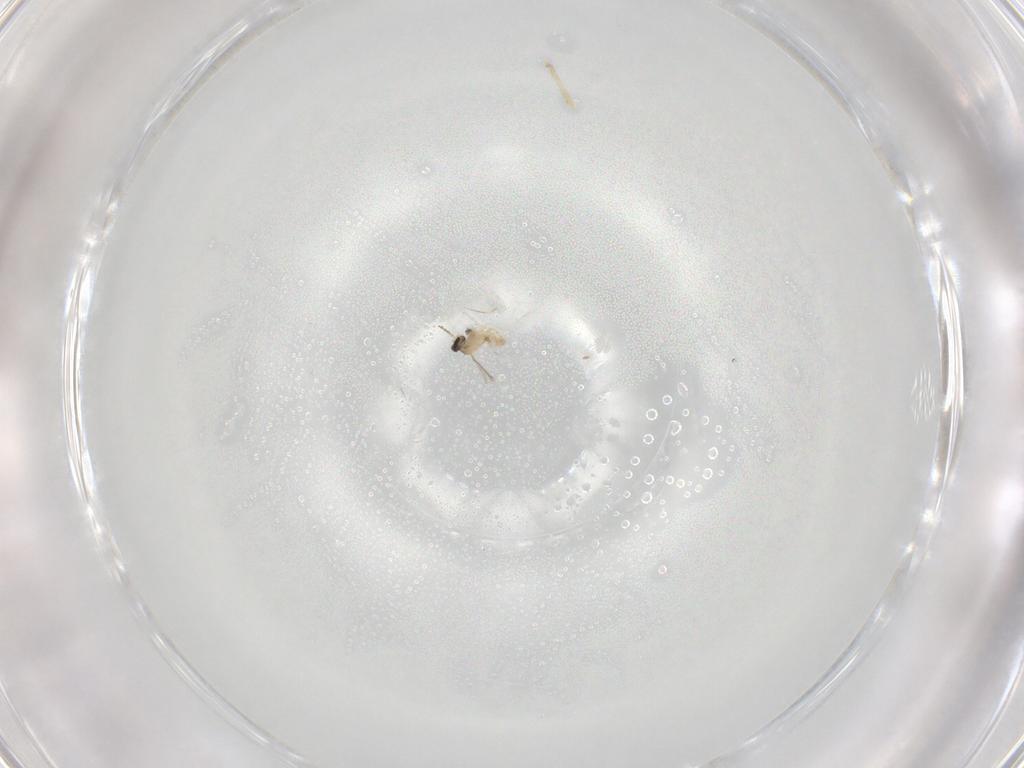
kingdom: Animalia
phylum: Arthropoda
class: Insecta
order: Diptera
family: Cecidomyiidae
